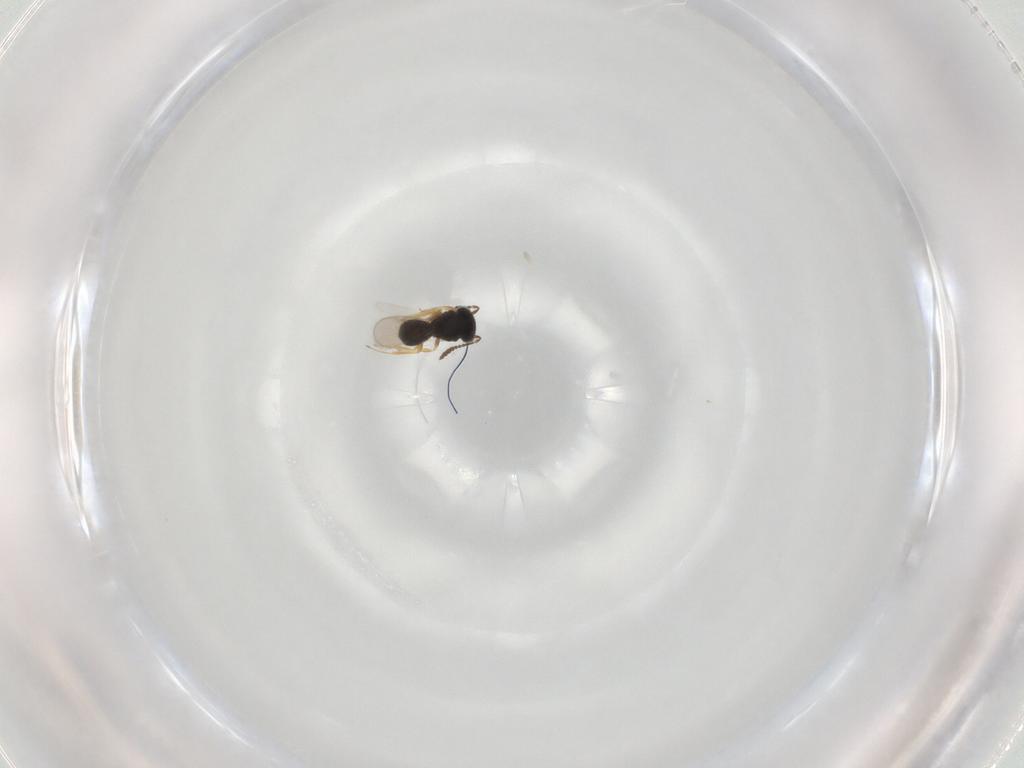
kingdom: Animalia
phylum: Arthropoda
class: Insecta
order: Hymenoptera
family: Scelionidae
